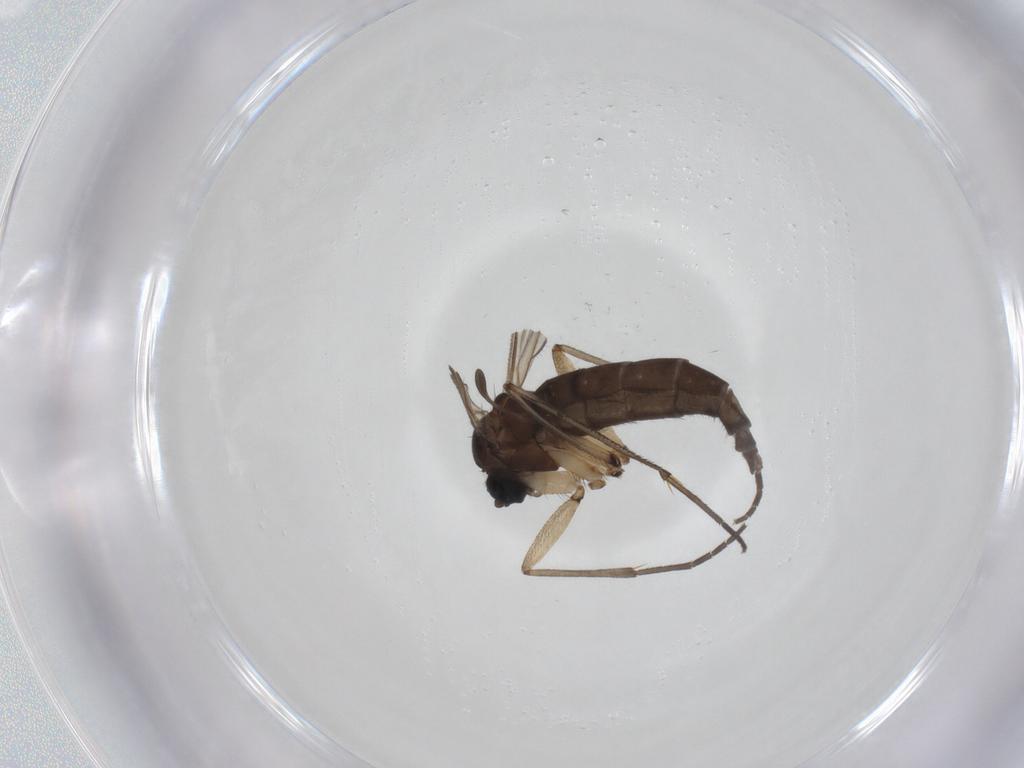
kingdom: Animalia
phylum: Arthropoda
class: Insecta
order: Diptera
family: Sciaridae
